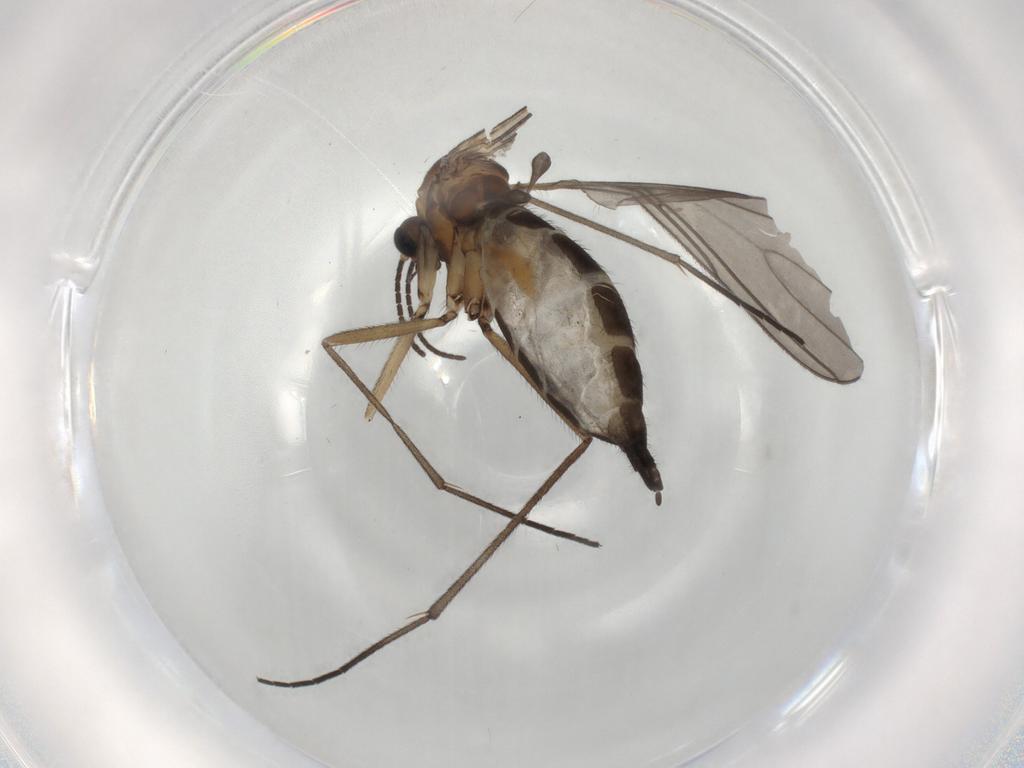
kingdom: Animalia
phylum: Arthropoda
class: Insecta
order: Diptera
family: Sciaridae
